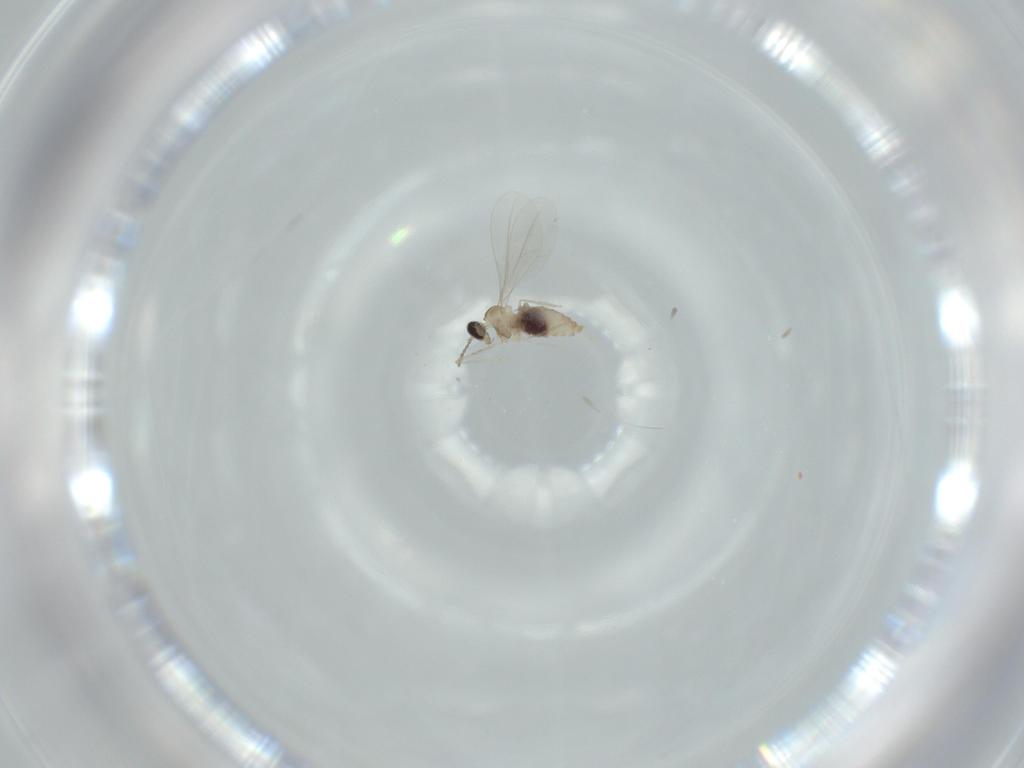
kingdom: Animalia
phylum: Arthropoda
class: Insecta
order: Diptera
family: Cecidomyiidae
